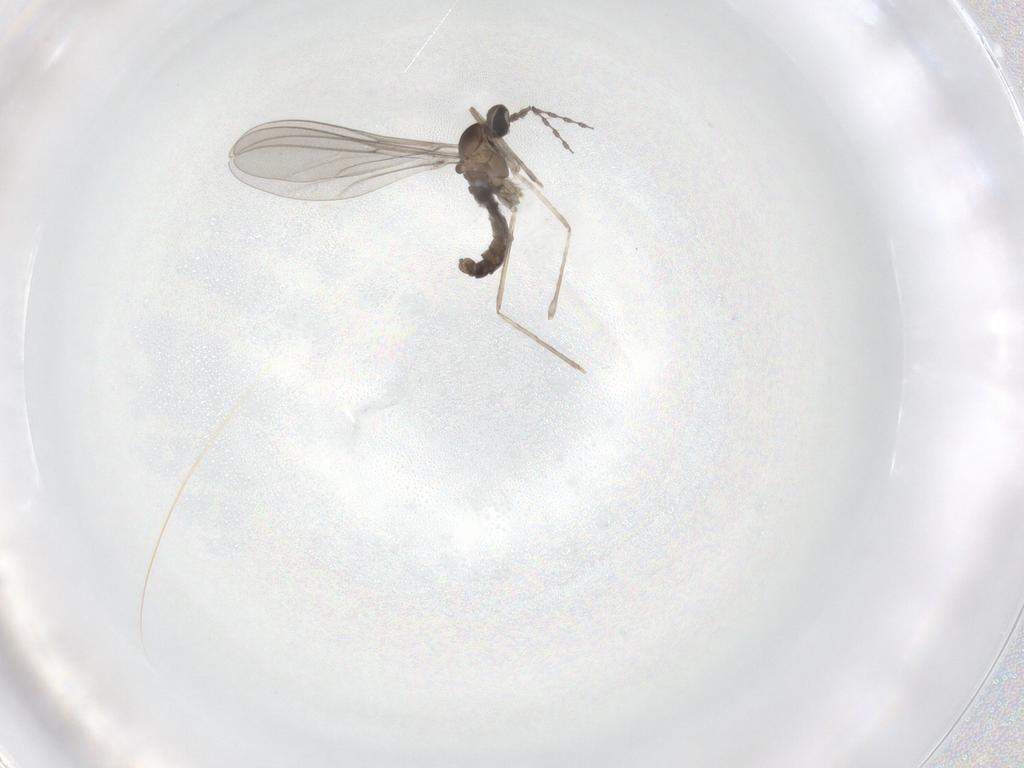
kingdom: Animalia
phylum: Arthropoda
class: Insecta
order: Diptera
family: Cecidomyiidae
